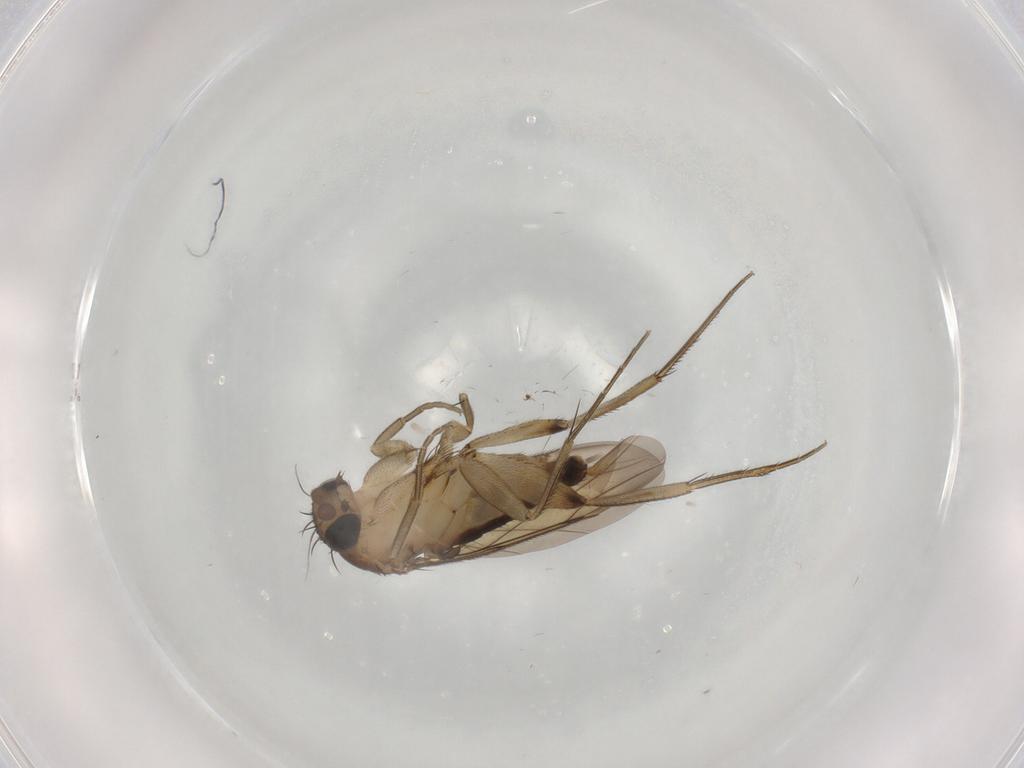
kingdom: Animalia
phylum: Arthropoda
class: Insecta
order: Diptera
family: Phoridae
